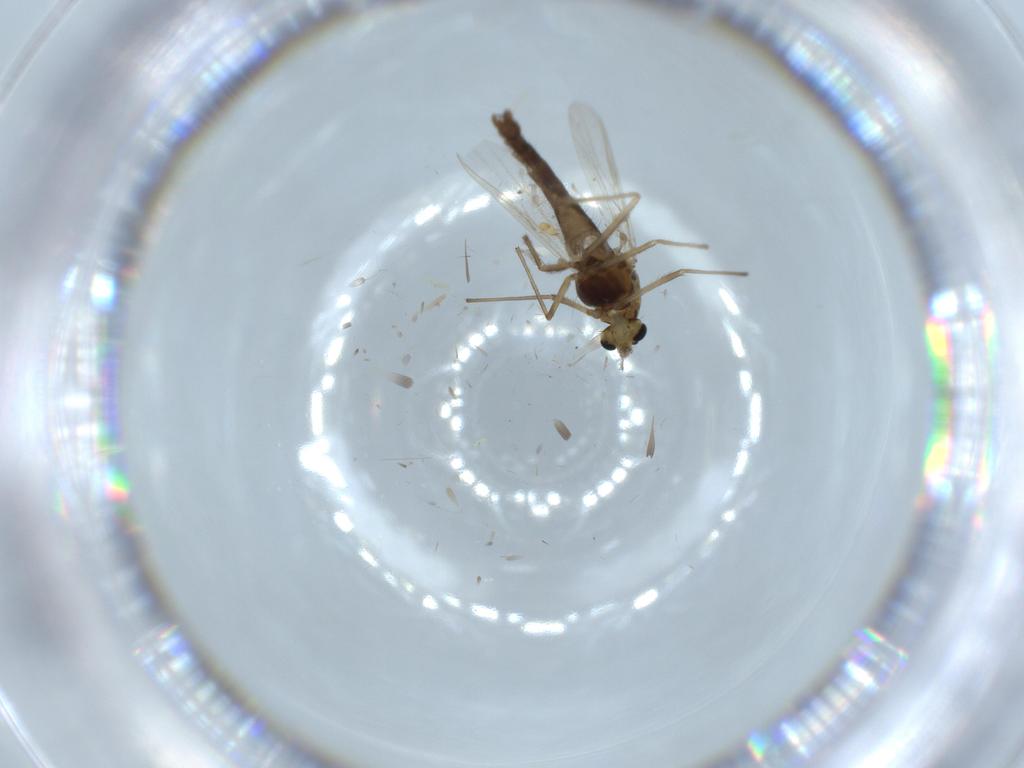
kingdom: Animalia
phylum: Arthropoda
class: Insecta
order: Diptera
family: Chironomidae
